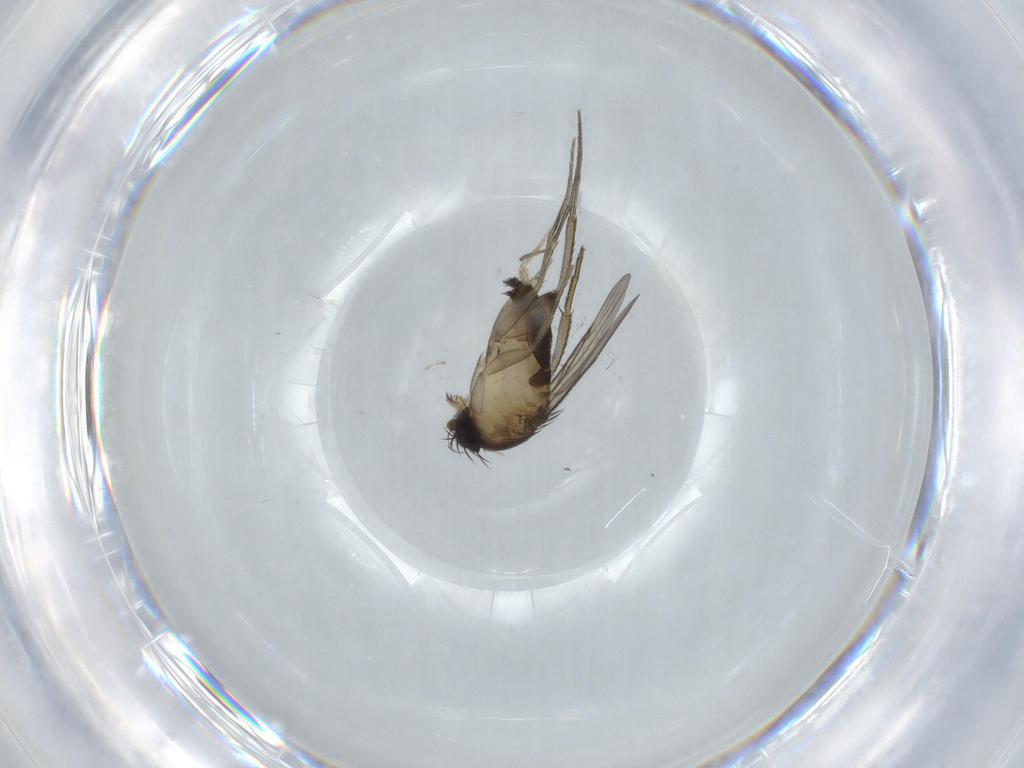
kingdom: Animalia
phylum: Arthropoda
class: Insecta
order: Diptera
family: Phoridae
